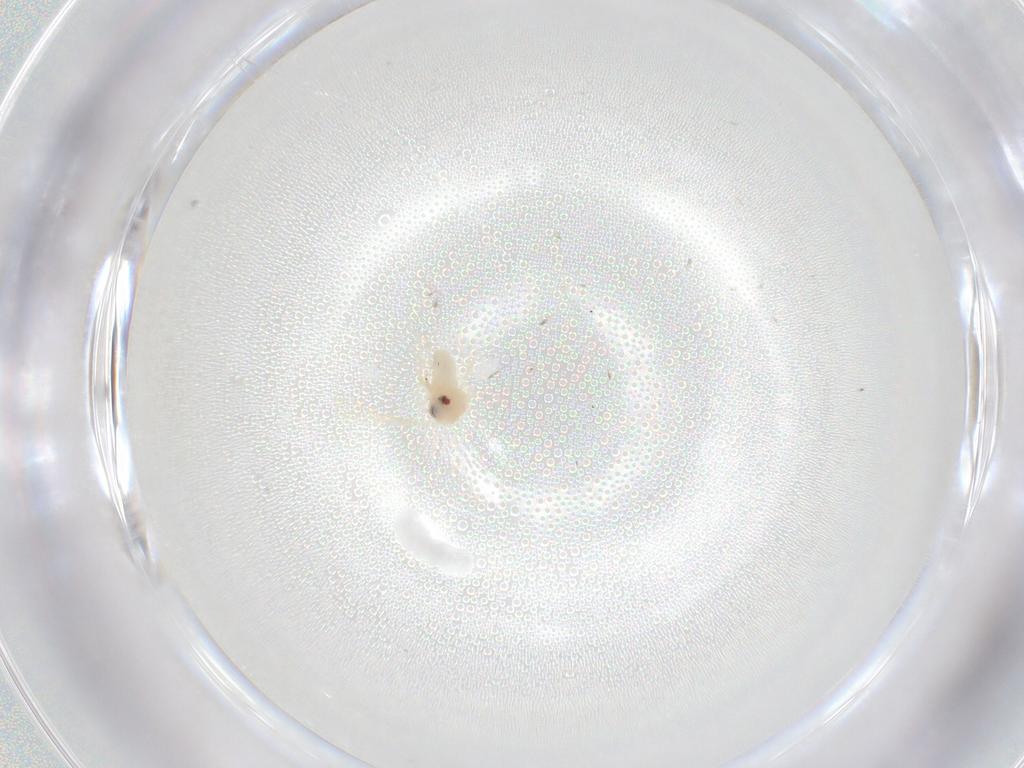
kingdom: Animalia
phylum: Arthropoda
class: Insecta
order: Hemiptera
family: Aleyrodidae
